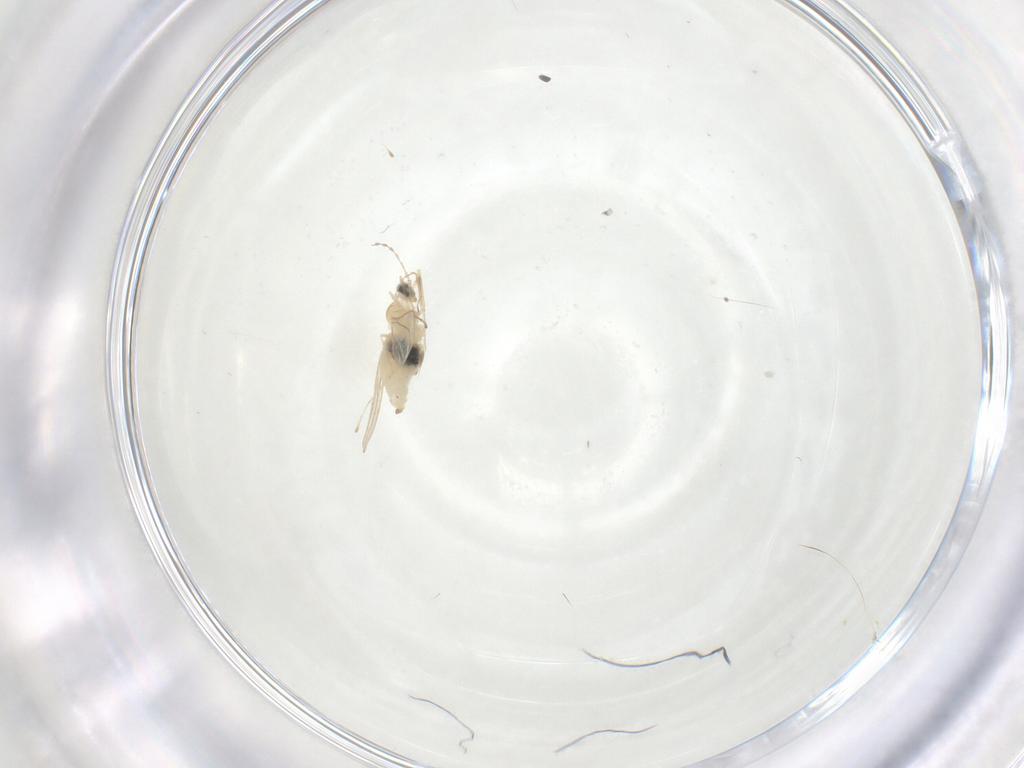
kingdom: Animalia
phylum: Arthropoda
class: Insecta
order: Diptera
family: Cecidomyiidae
